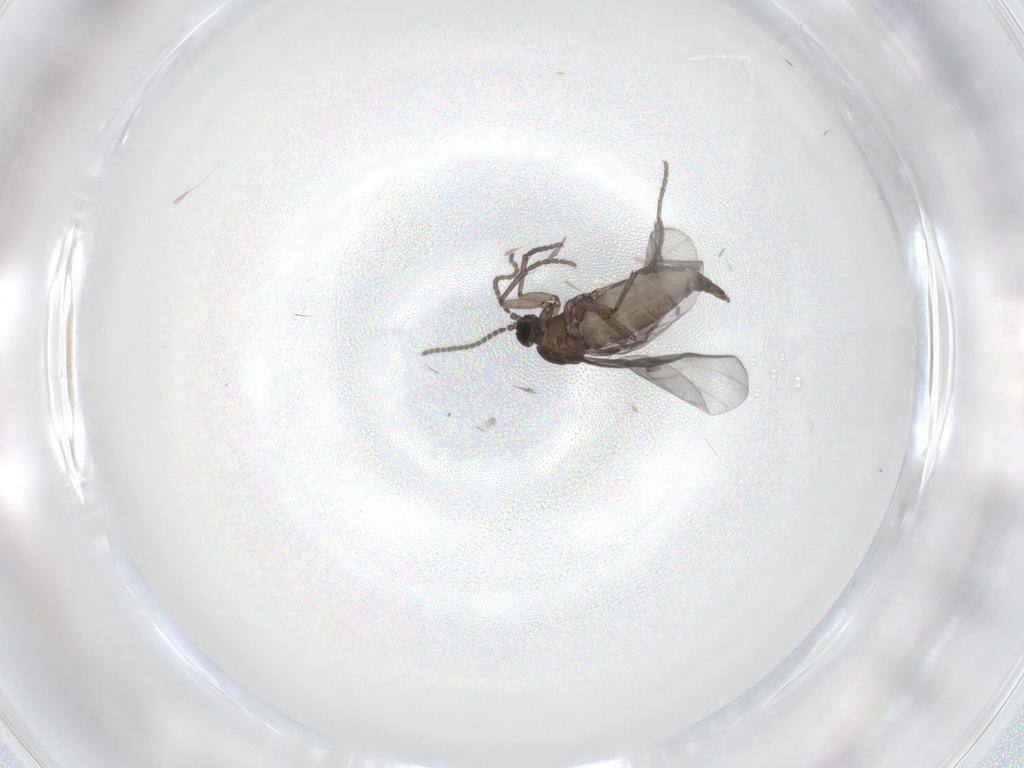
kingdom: Animalia
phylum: Arthropoda
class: Insecta
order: Diptera
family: Sciaridae
